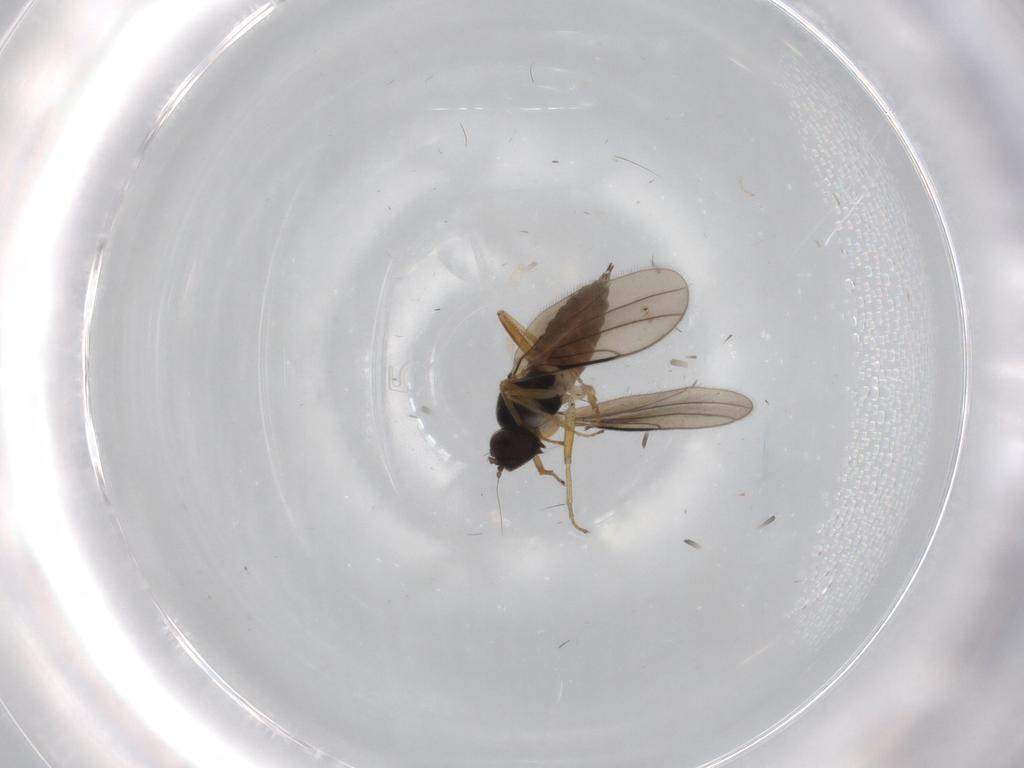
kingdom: Animalia
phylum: Arthropoda
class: Insecta
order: Diptera
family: Hybotidae
